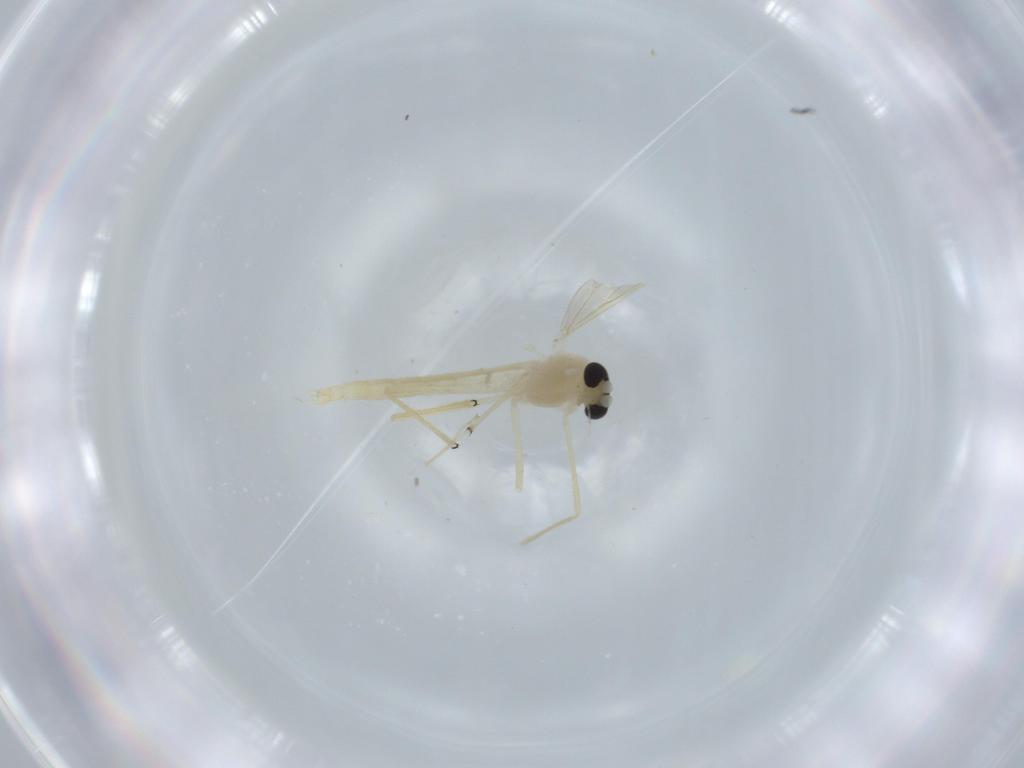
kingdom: Animalia
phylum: Arthropoda
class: Insecta
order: Diptera
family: Chironomidae
